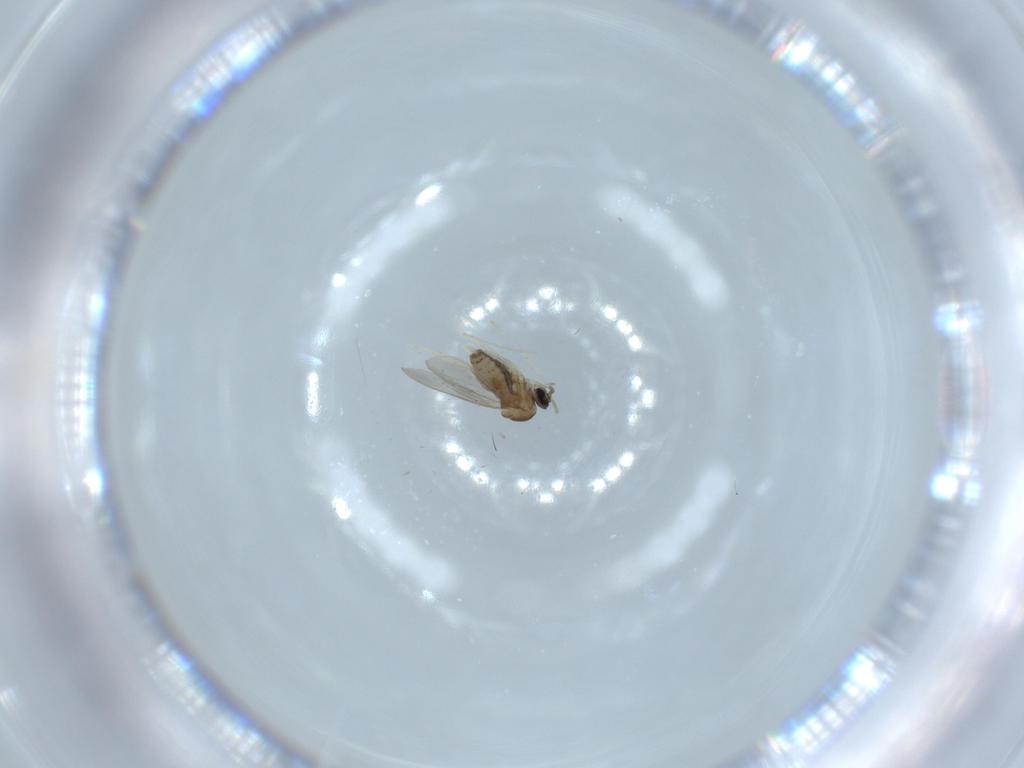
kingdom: Animalia
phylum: Arthropoda
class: Insecta
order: Diptera
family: Cecidomyiidae
